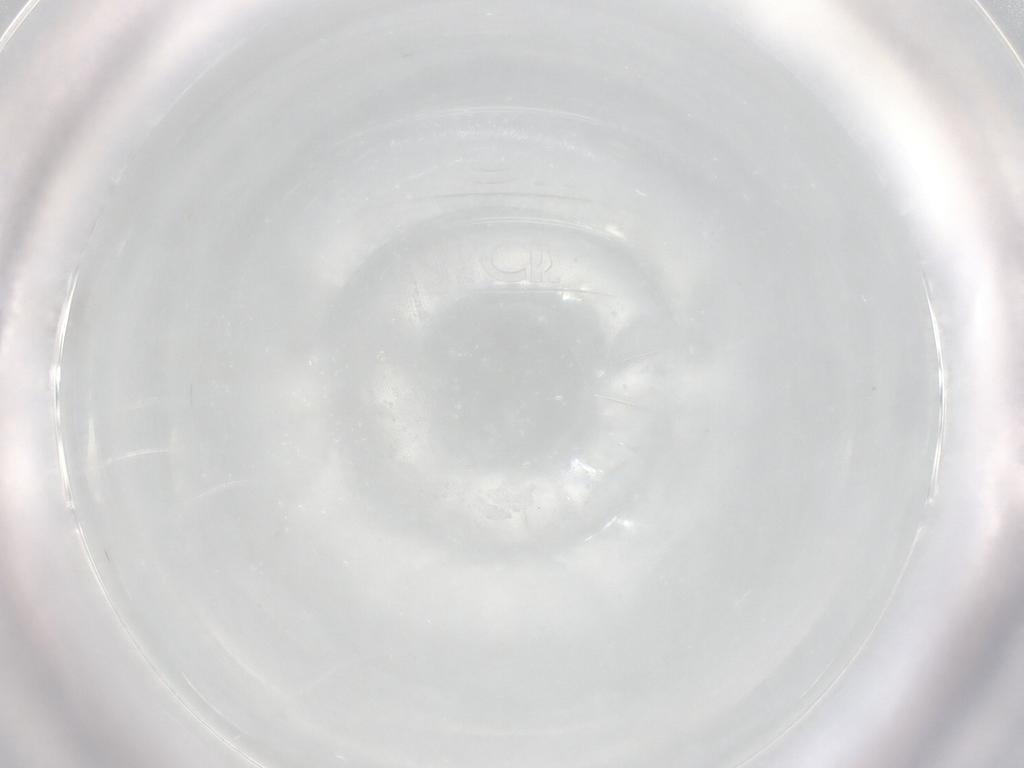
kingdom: Animalia
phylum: Arthropoda
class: Insecta
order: Hymenoptera
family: Mymaridae
